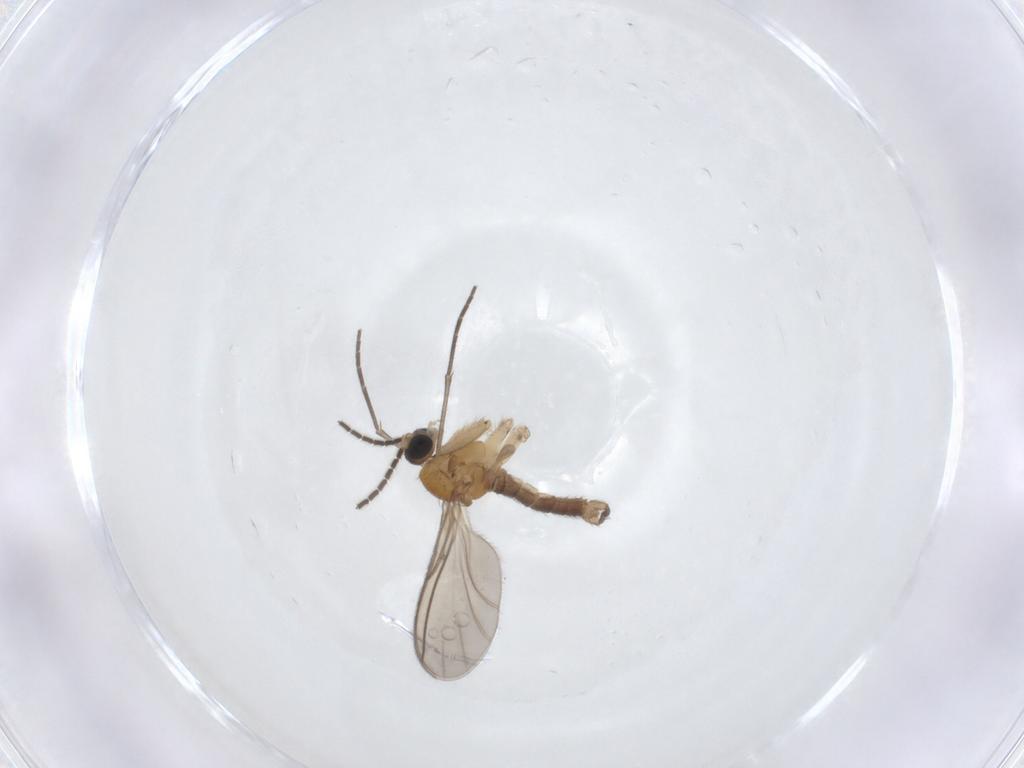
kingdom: Animalia
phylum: Arthropoda
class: Insecta
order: Diptera
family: Sciaridae
